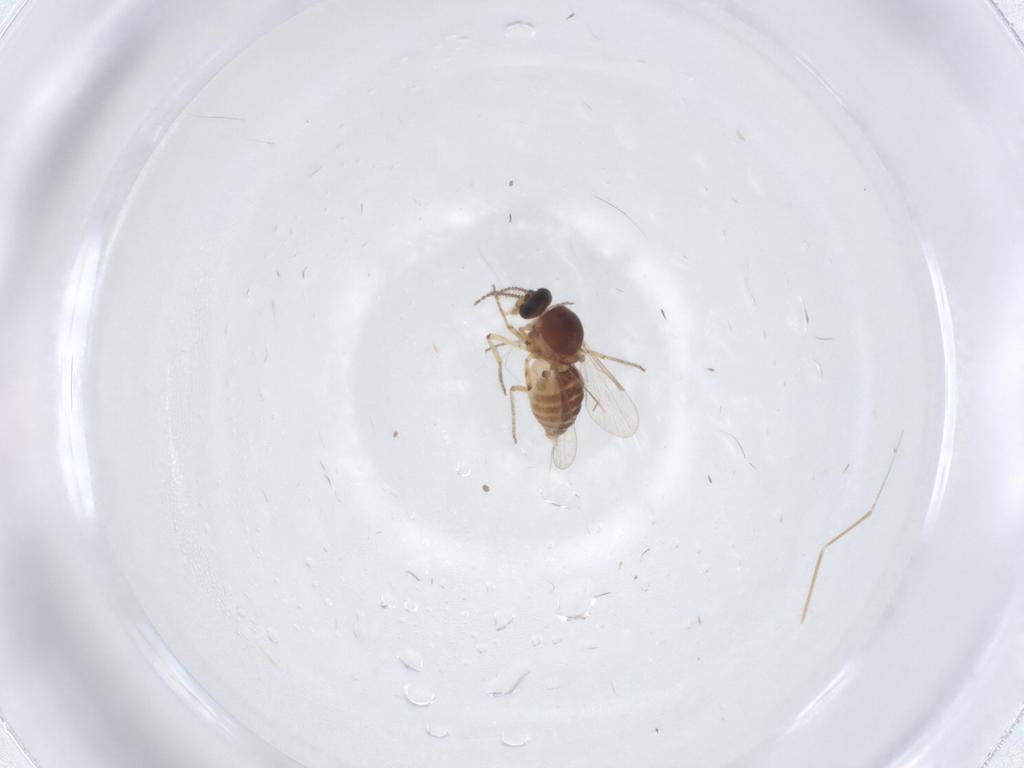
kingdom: Animalia
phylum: Arthropoda
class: Insecta
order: Diptera
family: Ceratopogonidae
